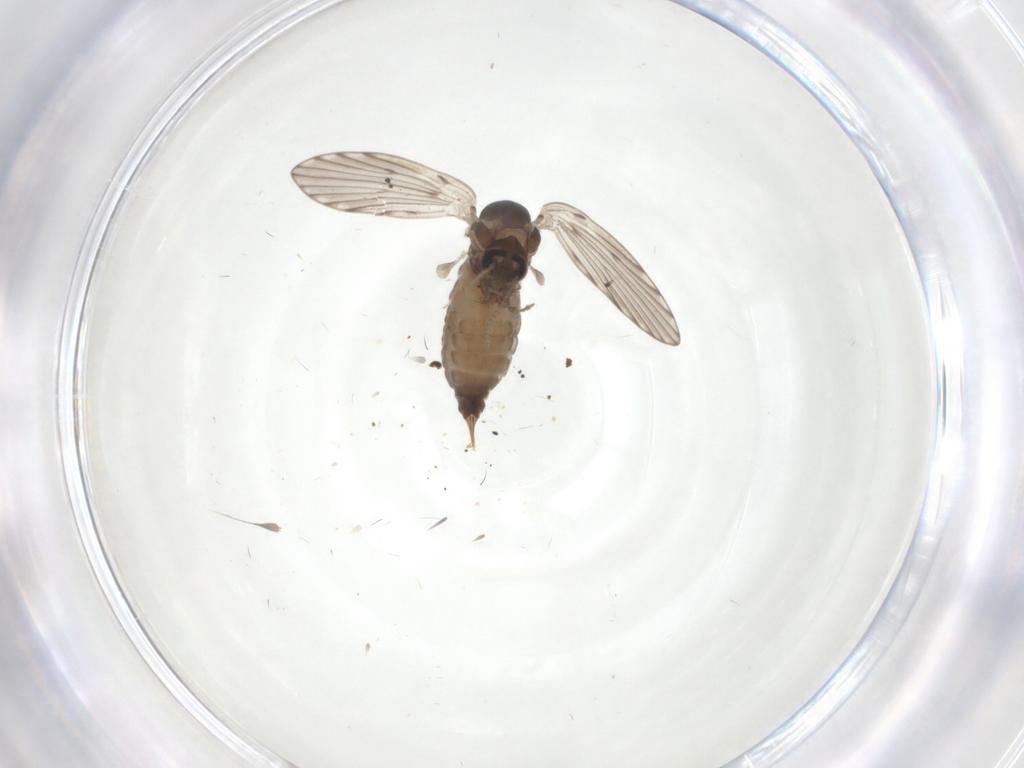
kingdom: Animalia
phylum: Arthropoda
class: Insecta
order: Diptera
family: Psychodidae
